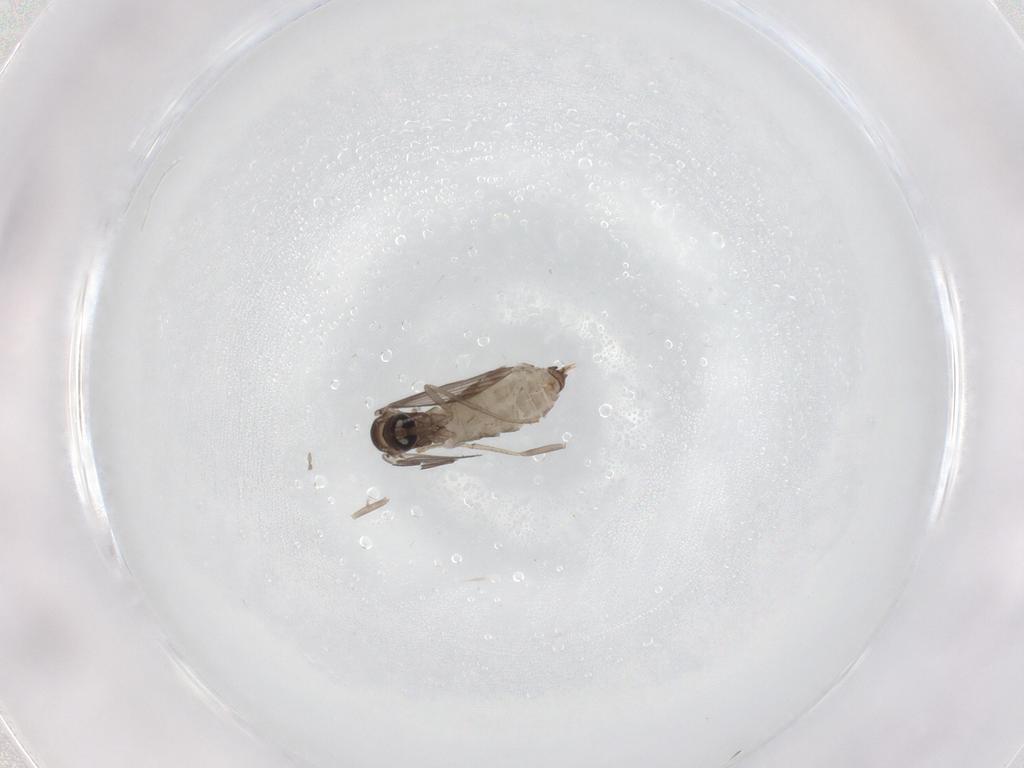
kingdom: Animalia
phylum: Arthropoda
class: Insecta
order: Diptera
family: Psychodidae
